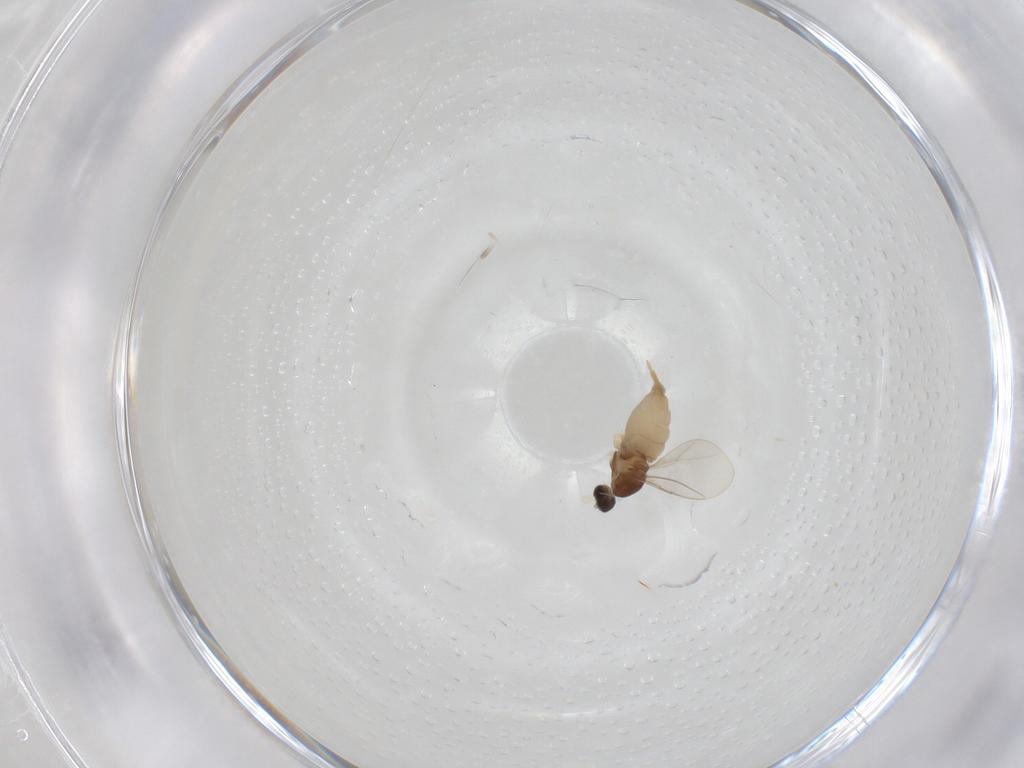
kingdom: Animalia
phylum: Arthropoda
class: Insecta
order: Diptera
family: Cecidomyiidae
